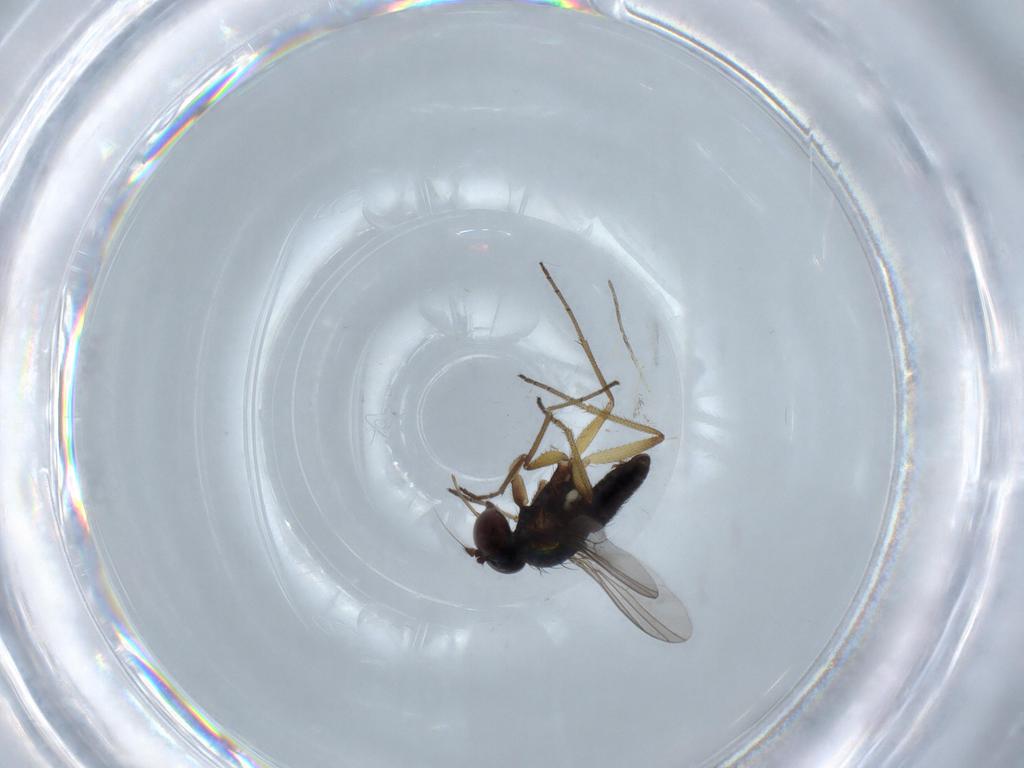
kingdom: Animalia
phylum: Arthropoda
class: Insecta
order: Diptera
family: Dolichopodidae
